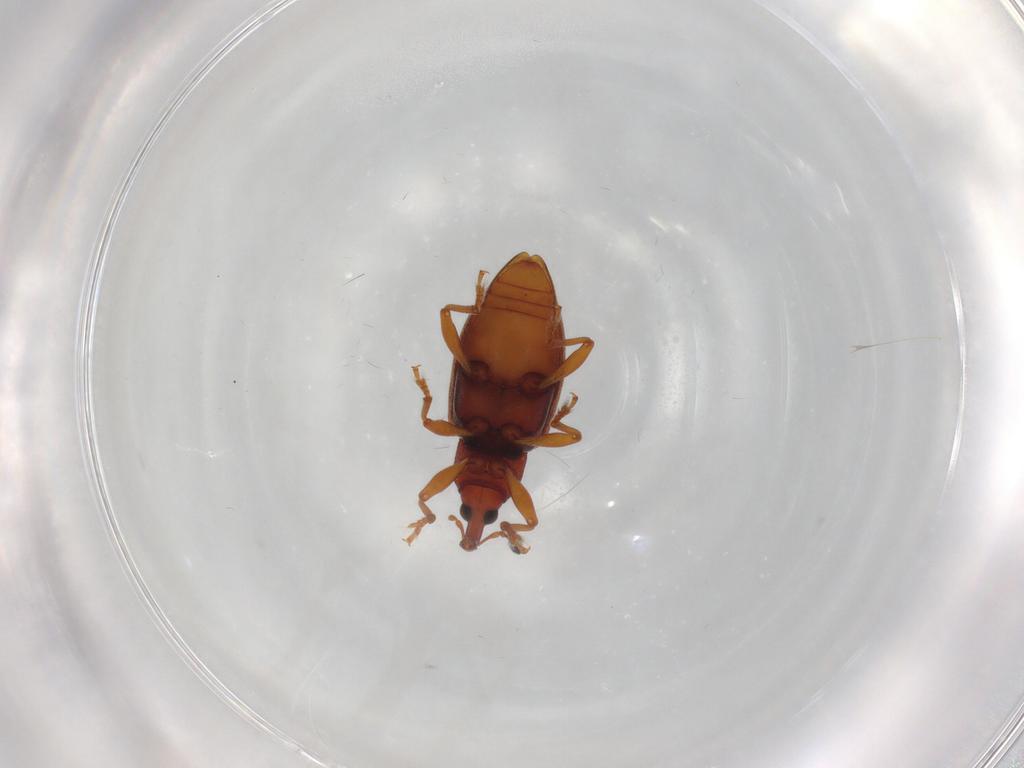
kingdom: Animalia
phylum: Arthropoda
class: Insecta
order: Coleoptera
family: Curculionidae
